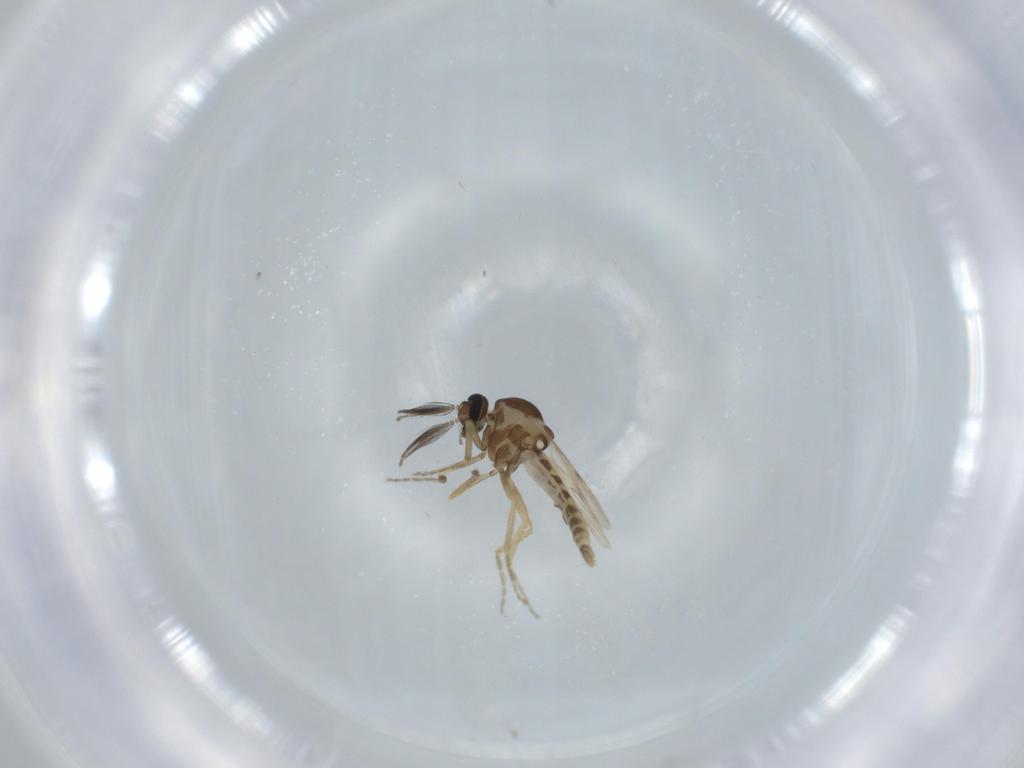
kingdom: Animalia
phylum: Arthropoda
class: Insecta
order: Diptera
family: Ceratopogonidae
